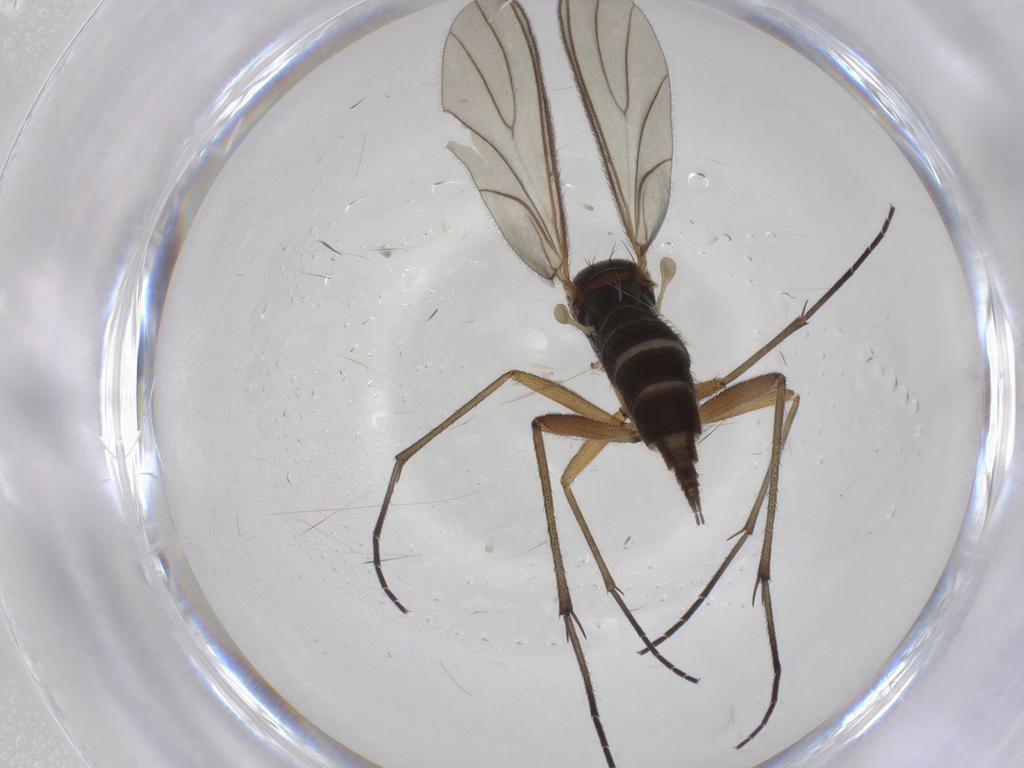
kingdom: Animalia
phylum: Arthropoda
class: Insecta
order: Diptera
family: Sciaridae
